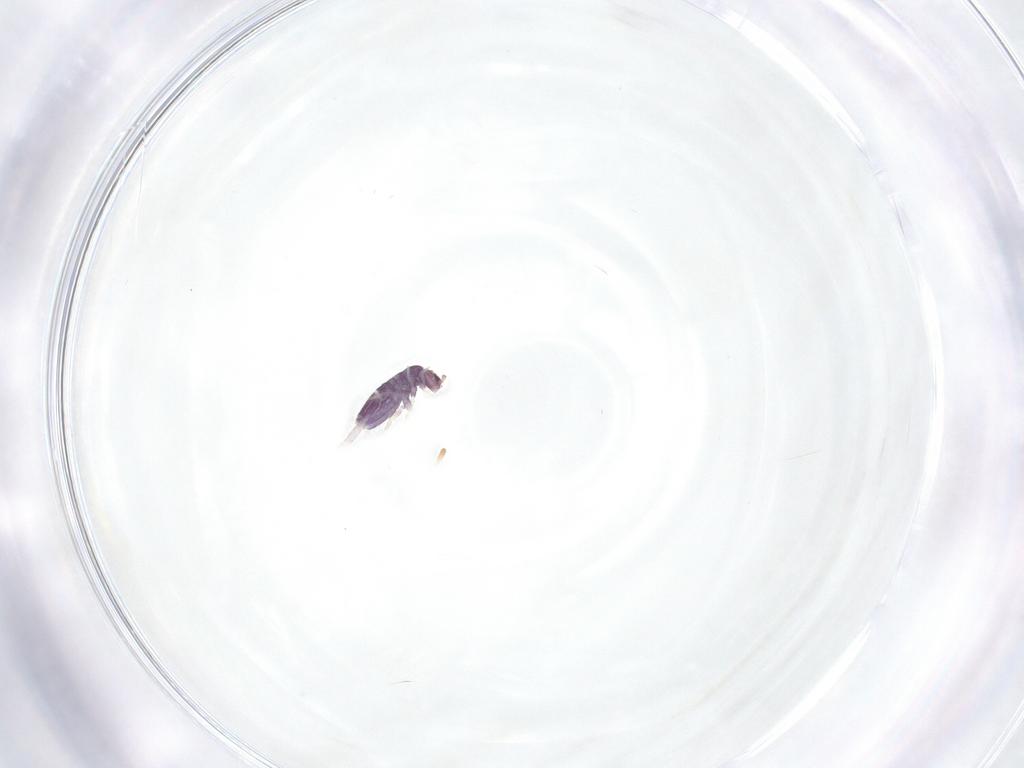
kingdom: Animalia
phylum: Arthropoda
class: Collembola
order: Entomobryomorpha
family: Entomobryidae
